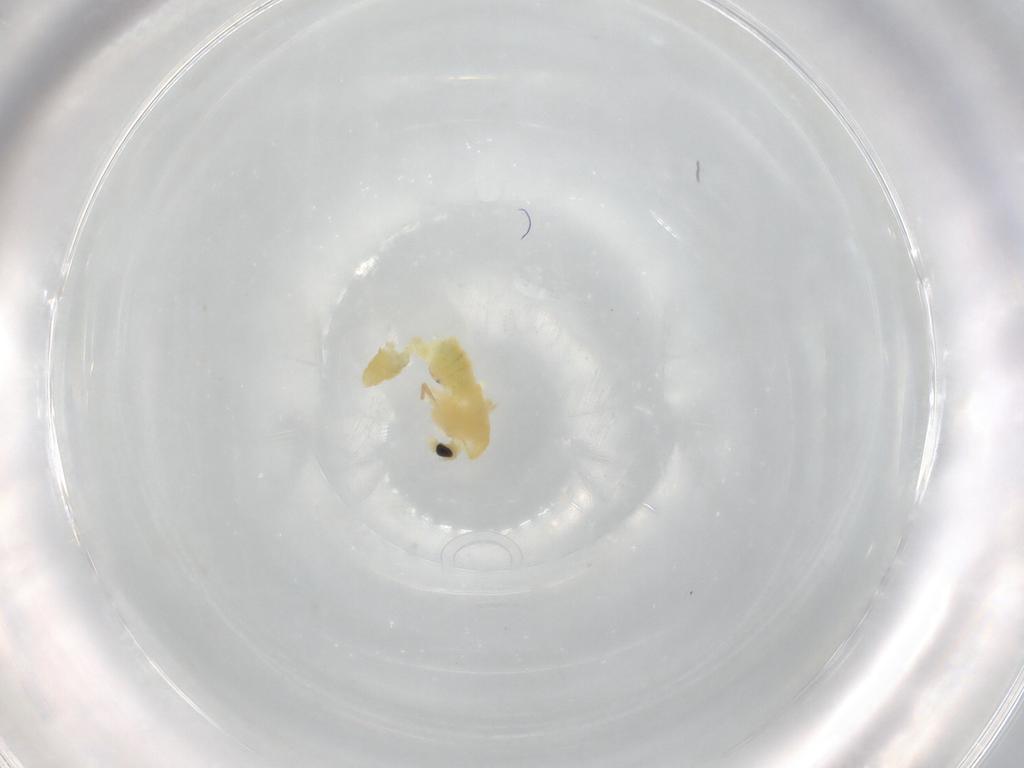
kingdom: Animalia
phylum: Arthropoda
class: Insecta
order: Diptera
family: Chironomidae
